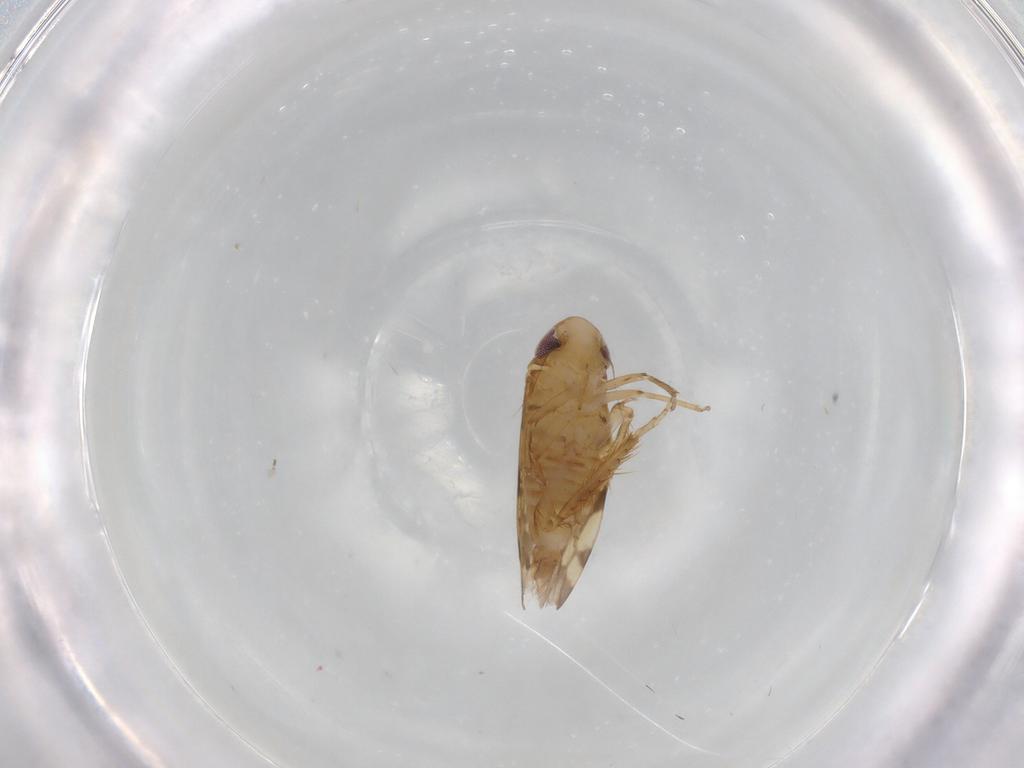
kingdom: Animalia
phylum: Arthropoda
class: Insecta
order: Hemiptera
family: Cicadellidae
